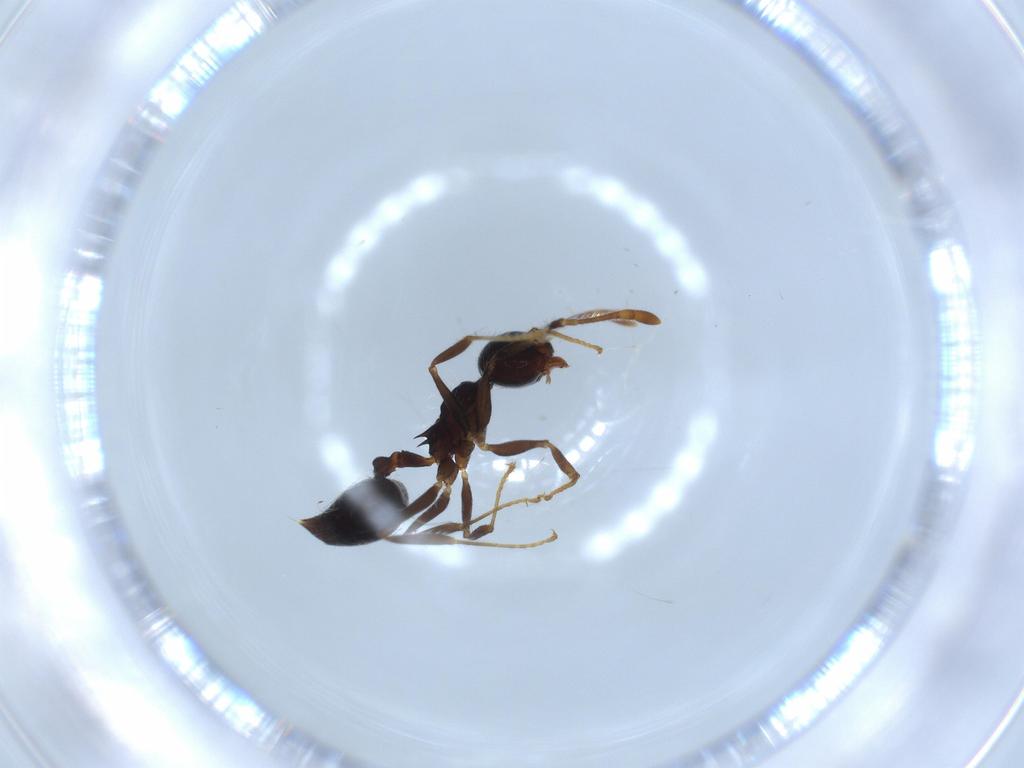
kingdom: Animalia
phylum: Arthropoda
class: Insecta
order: Hymenoptera
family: Formicidae
